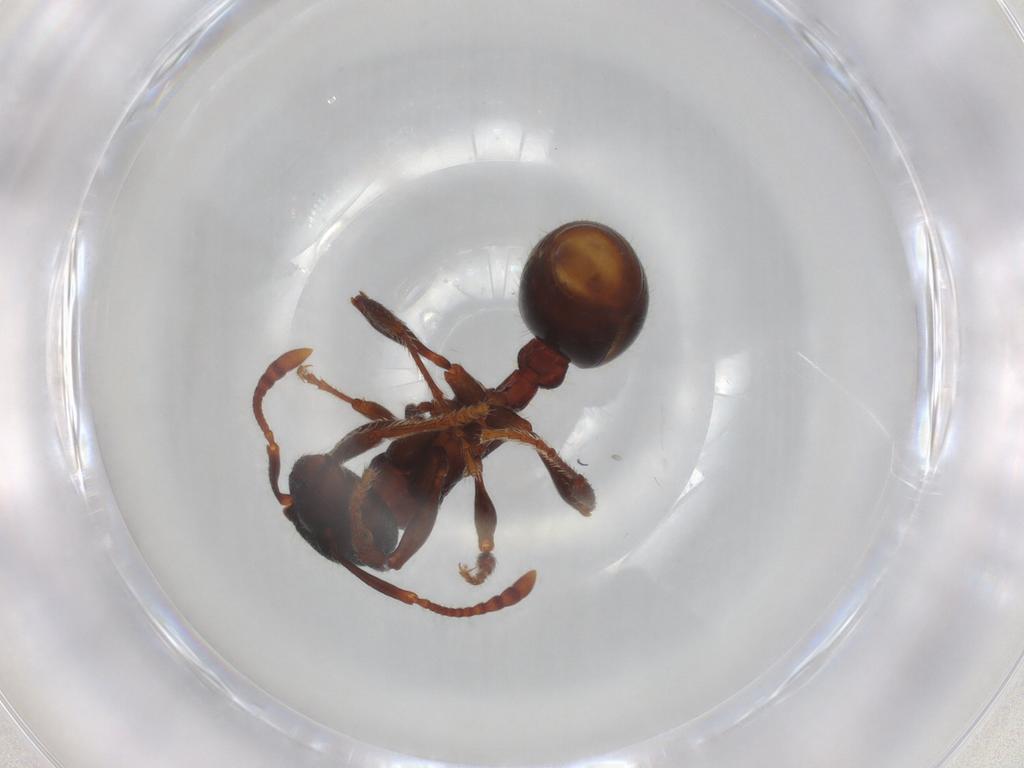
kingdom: Animalia
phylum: Arthropoda
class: Insecta
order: Hymenoptera
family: Formicidae
